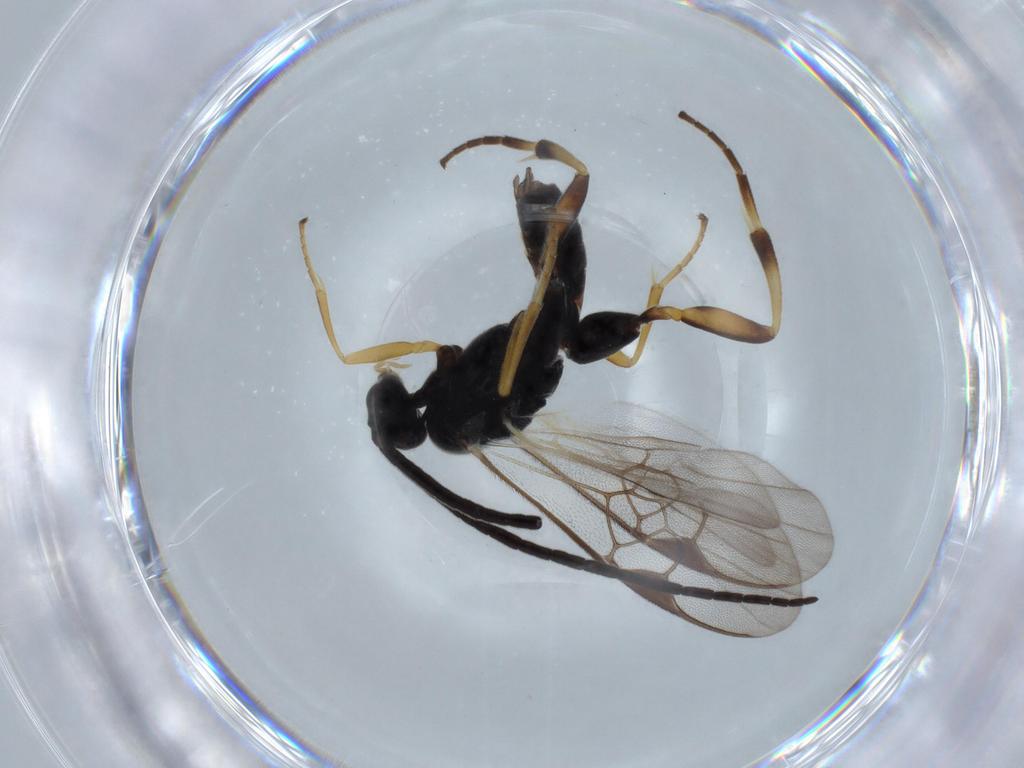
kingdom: Animalia
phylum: Arthropoda
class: Insecta
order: Hymenoptera
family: Braconidae
